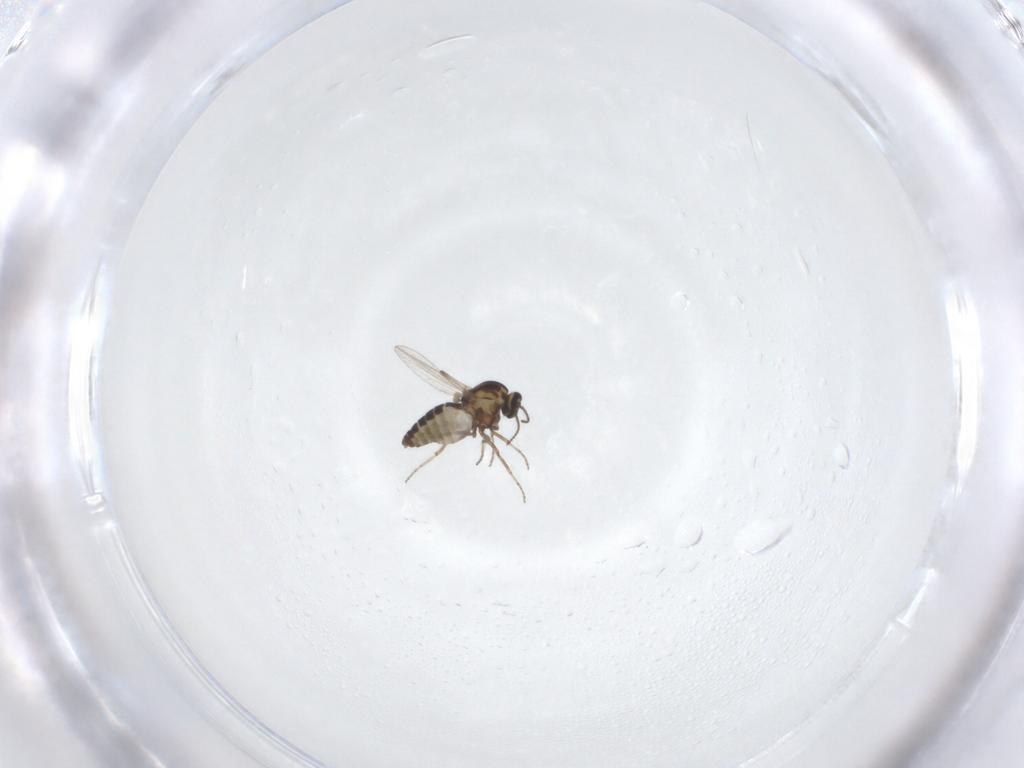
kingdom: Animalia
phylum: Arthropoda
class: Insecta
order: Diptera
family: Ceratopogonidae
